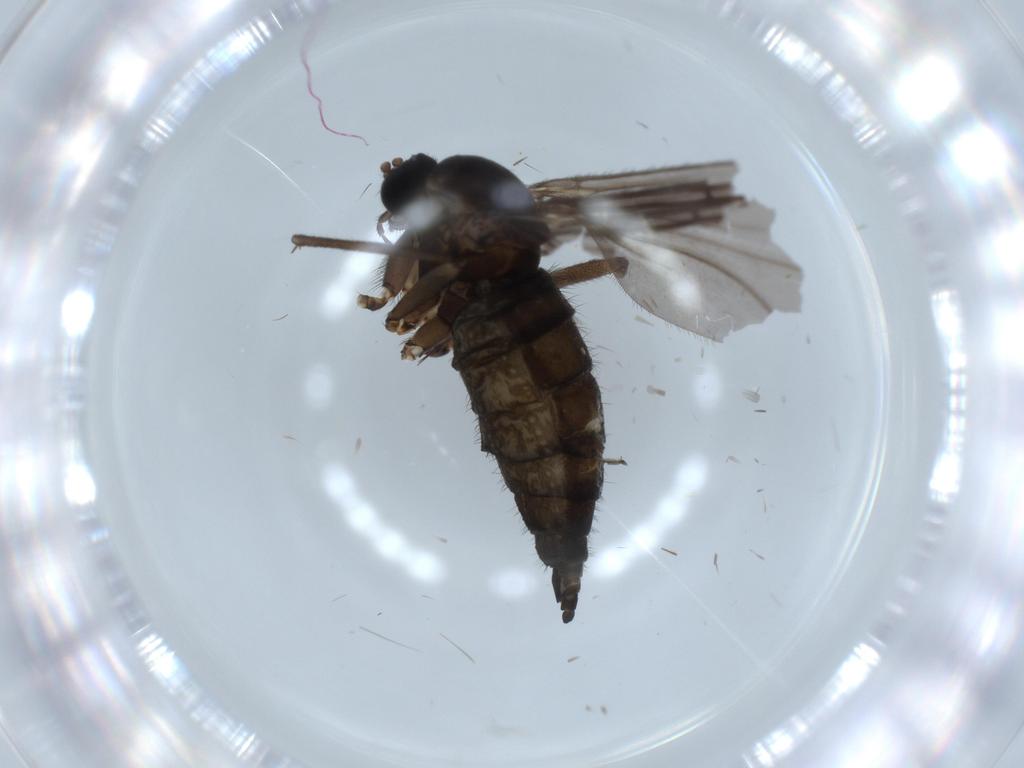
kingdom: Animalia
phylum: Arthropoda
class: Insecta
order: Diptera
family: Sciaridae
